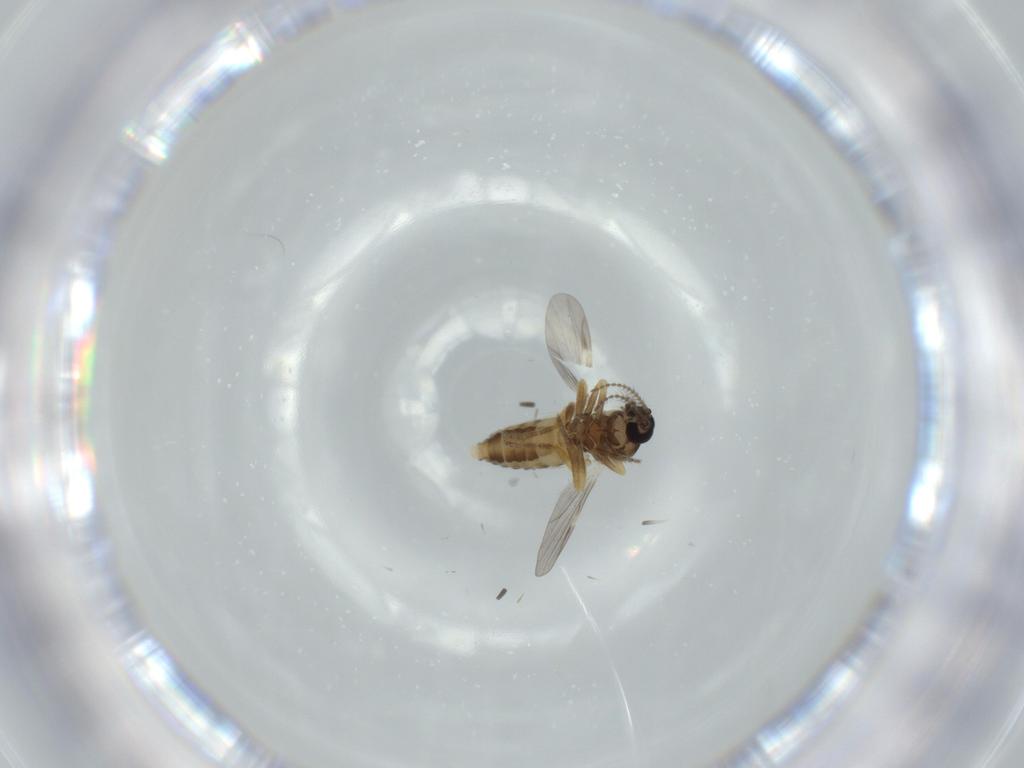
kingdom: Animalia
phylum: Arthropoda
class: Insecta
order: Diptera
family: Ceratopogonidae
